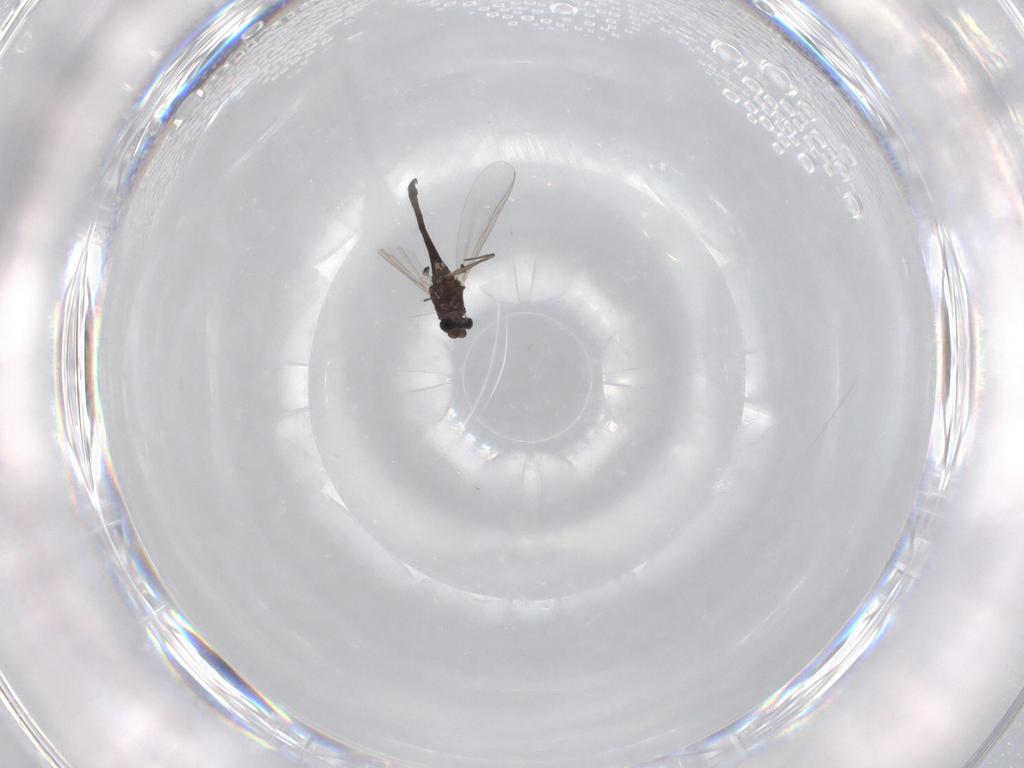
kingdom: Animalia
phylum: Arthropoda
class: Insecta
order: Diptera
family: Chironomidae
